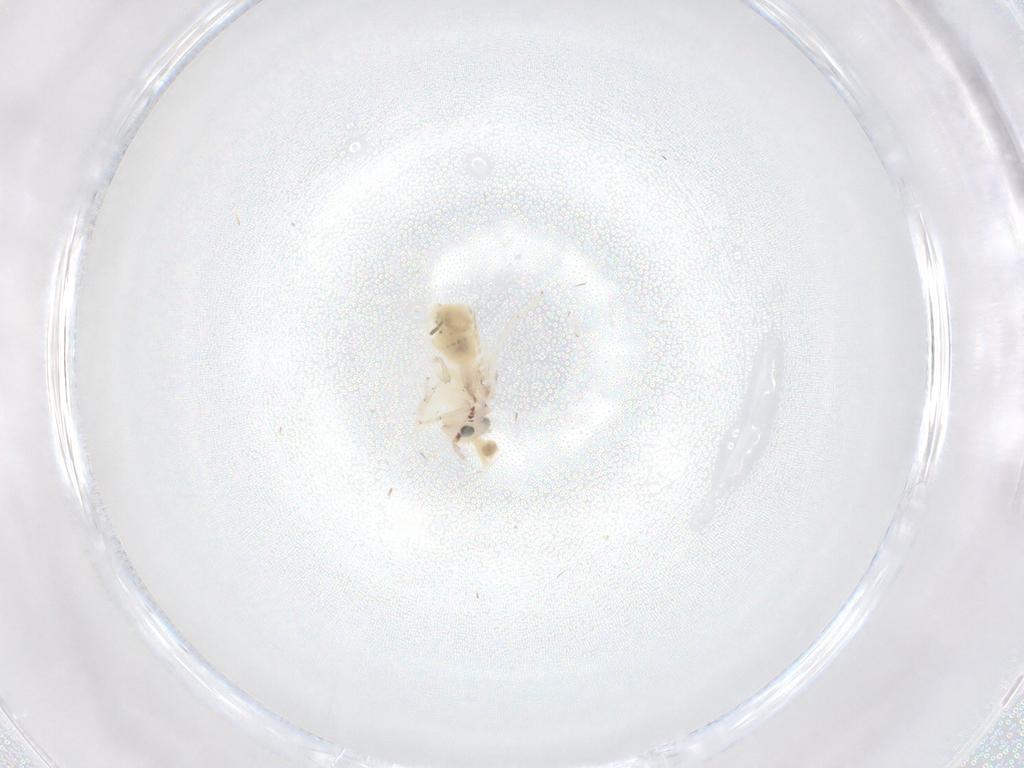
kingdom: Animalia
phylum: Arthropoda
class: Insecta
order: Psocodea
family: Lepidopsocidae
